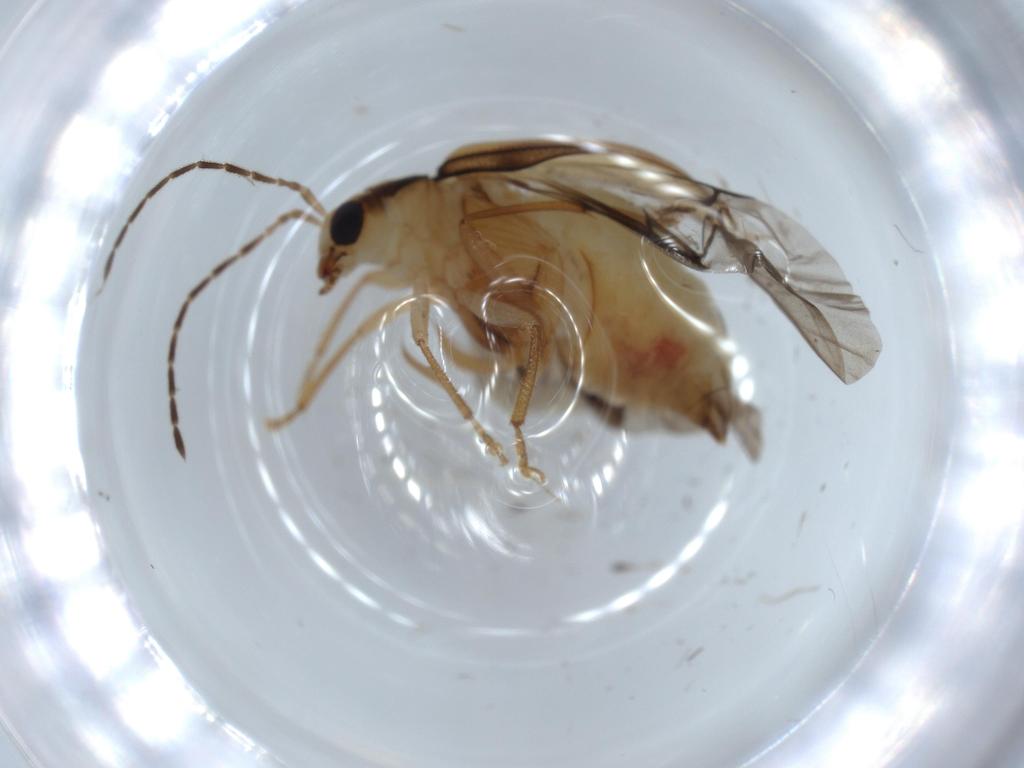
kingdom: Animalia
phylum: Arthropoda
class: Insecta
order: Coleoptera
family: Chrysomelidae
